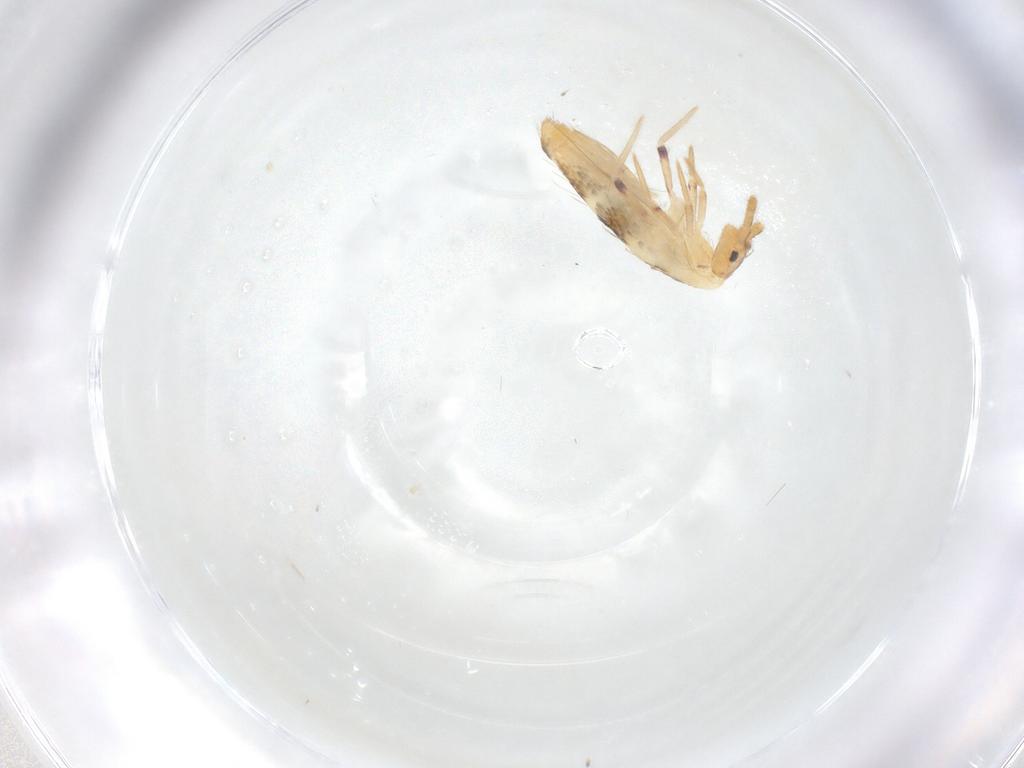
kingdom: Animalia
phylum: Arthropoda
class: Collembola
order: Entomobryomorpha
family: Entomobryidae
